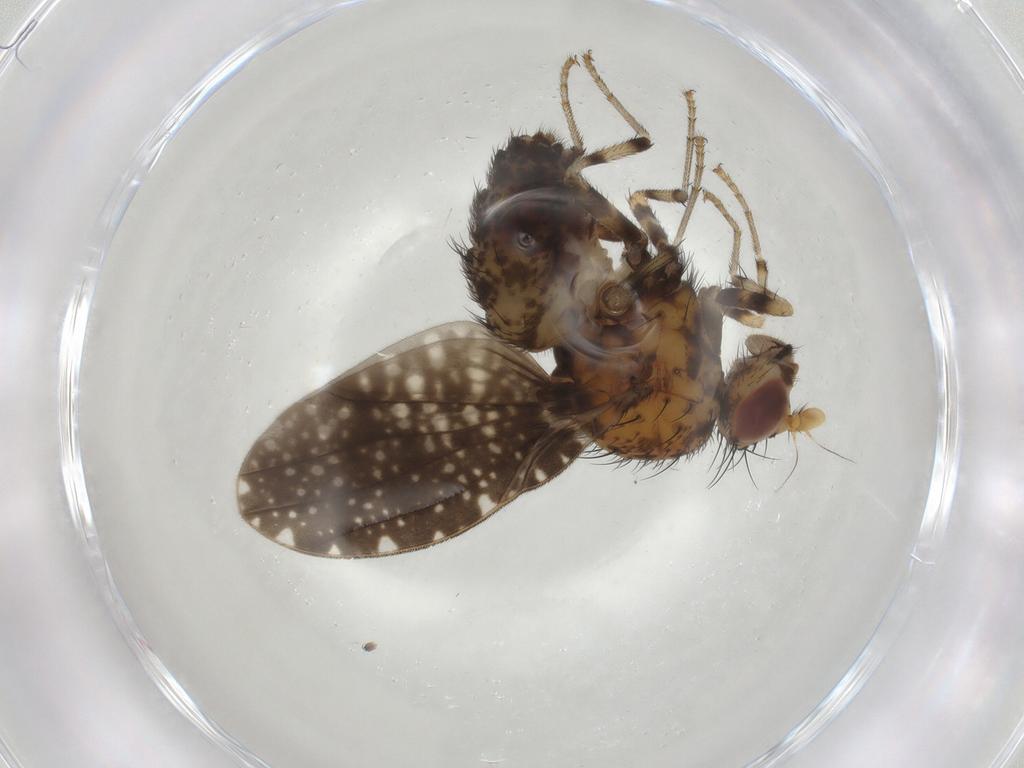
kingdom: Animalia
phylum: Arthropoda
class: Insecta
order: Diptera
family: Chironomidae
